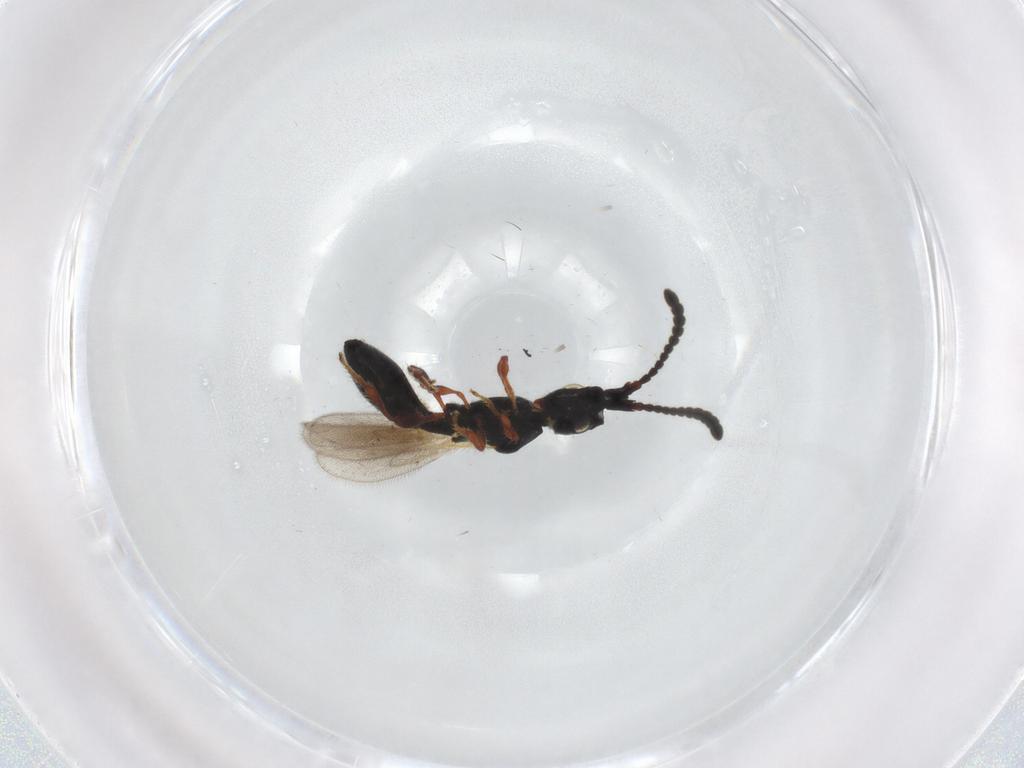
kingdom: Animalia
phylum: Arthropoda
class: Insecta
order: Hymenoptera
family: Diapriidae
